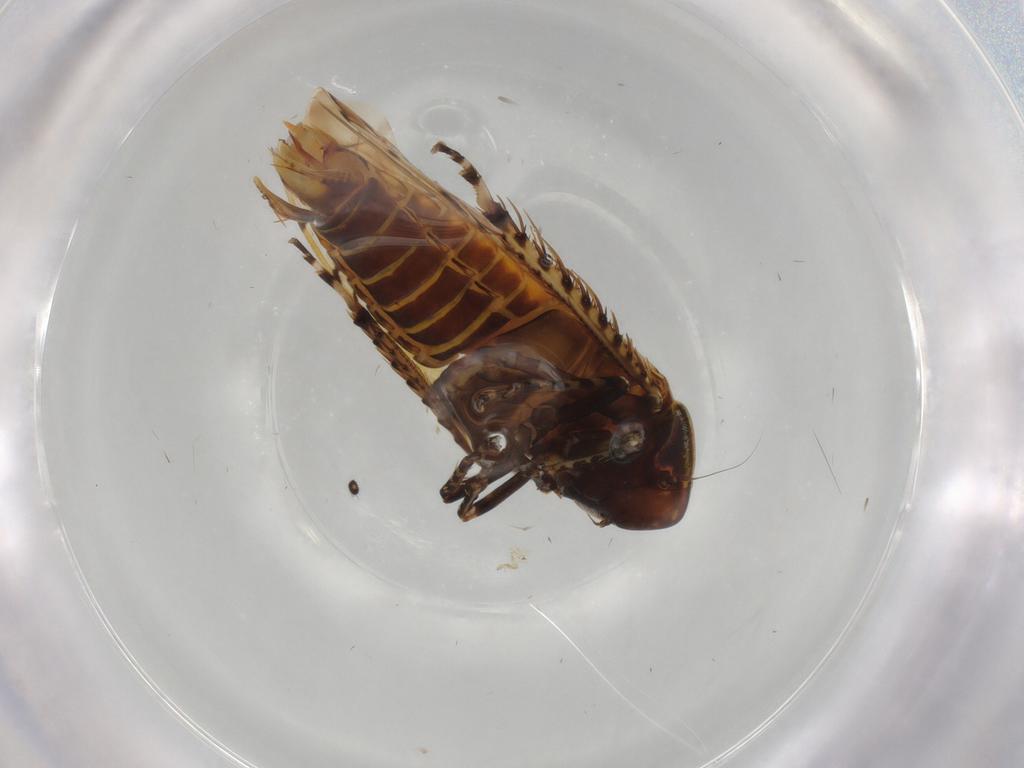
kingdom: Animalia
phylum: Arthropoda
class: Insecta
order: Hemiptera
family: Cicadellidae
